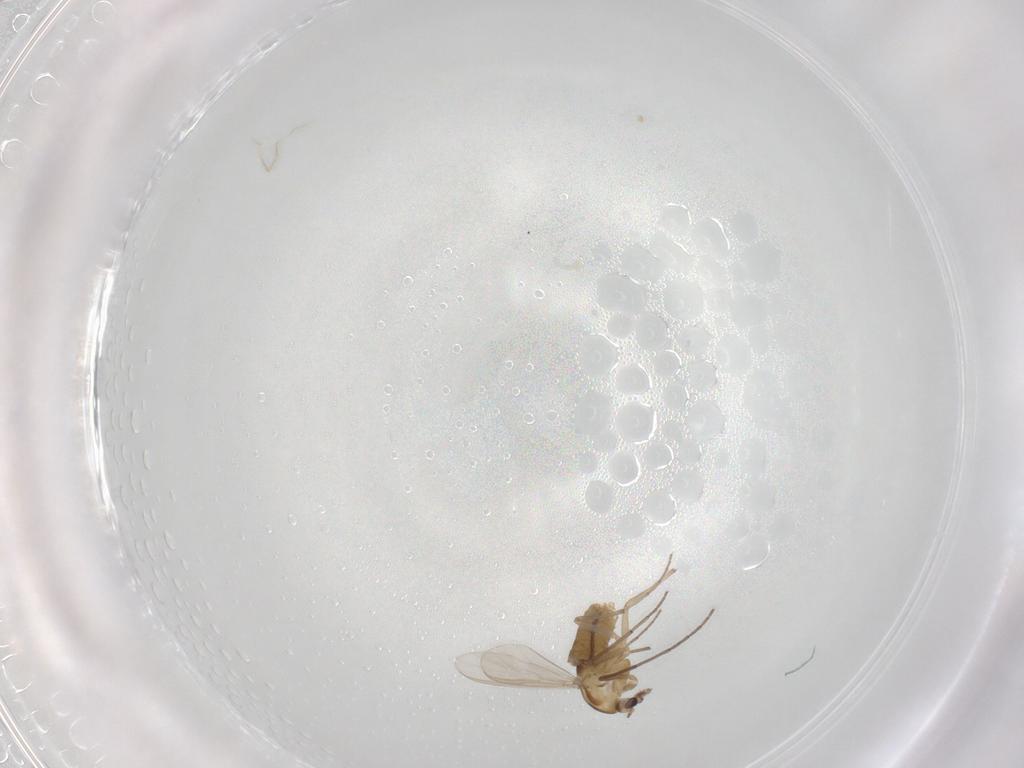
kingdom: Animalia
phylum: Arthropoda
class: Insecta
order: Diptera
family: Chironomidae
